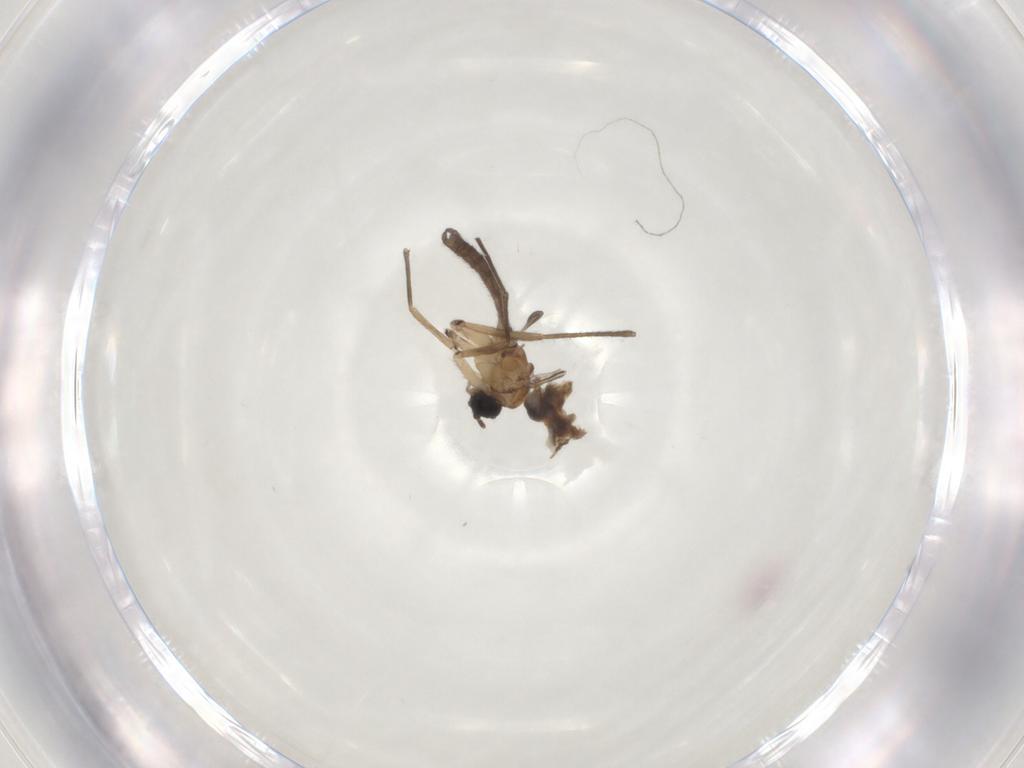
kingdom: Animalia
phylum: Arthropoda
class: Insecta
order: Diptera
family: Sciaridae
